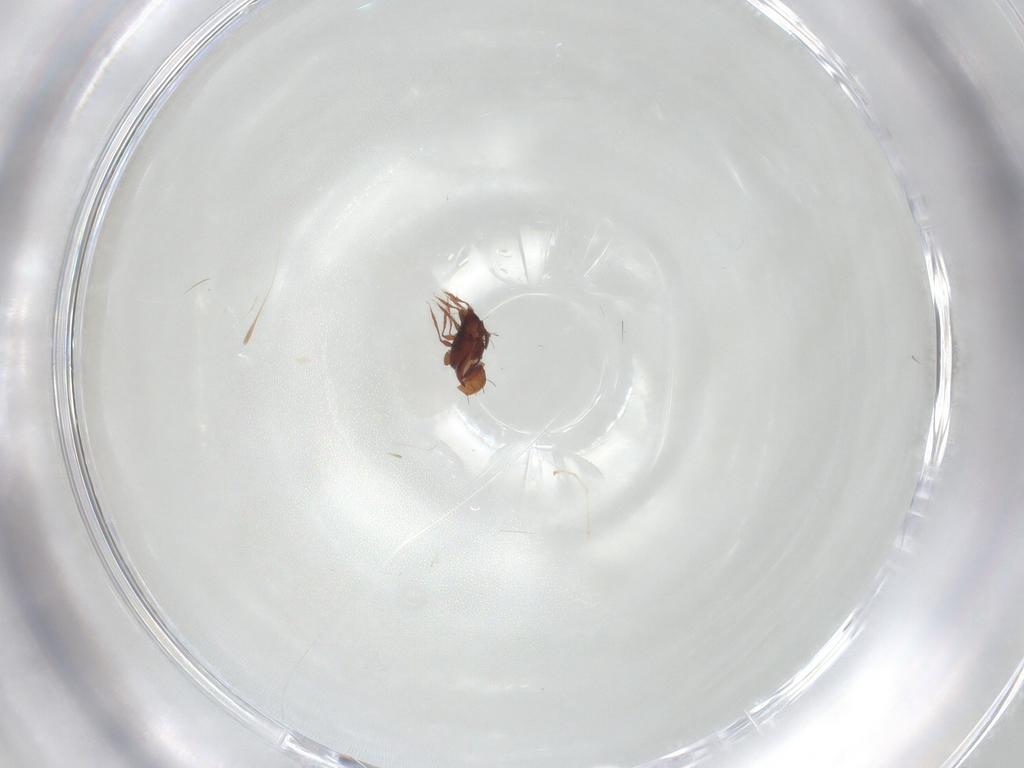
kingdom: Animalia
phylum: Arthropoda
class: Arachnida
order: Sarcoptiformes
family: Caloppiidae
